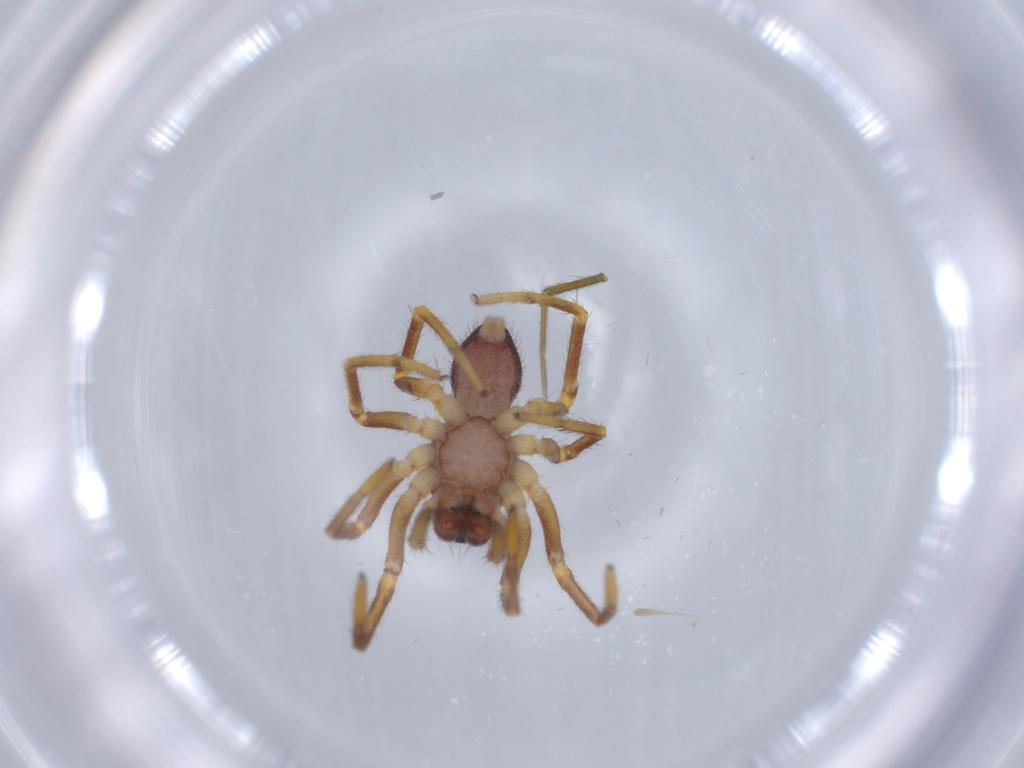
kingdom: Animalia
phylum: Arthropoda
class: Arachnida
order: Araneae
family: Corinnidae
